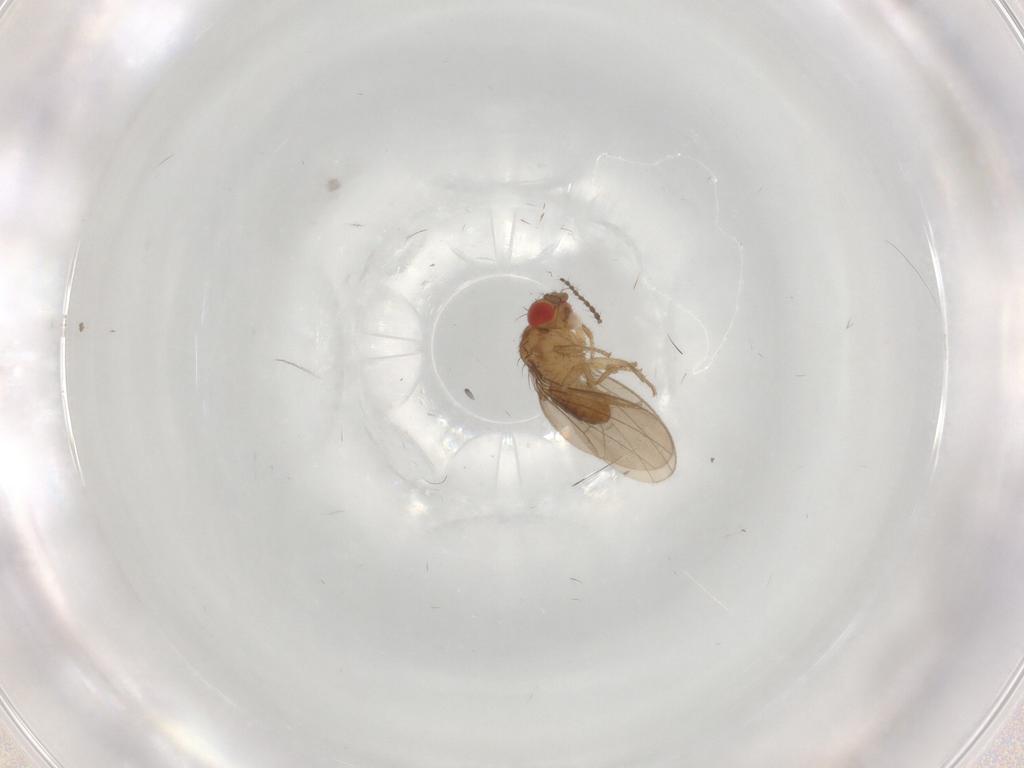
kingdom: Animalia
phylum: Arthropoda
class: Insecta
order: Diptera
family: Drosophilidae
